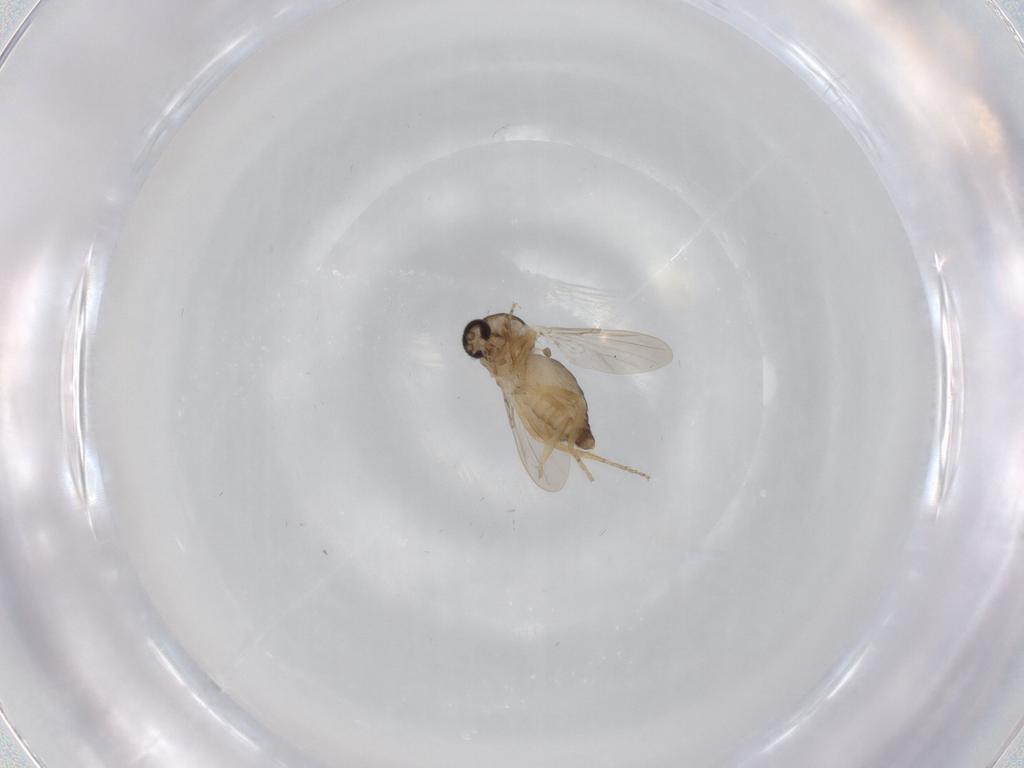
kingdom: Animalia
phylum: Arthropoda
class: Insecta
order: Diptera
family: Ceratopogonidae
